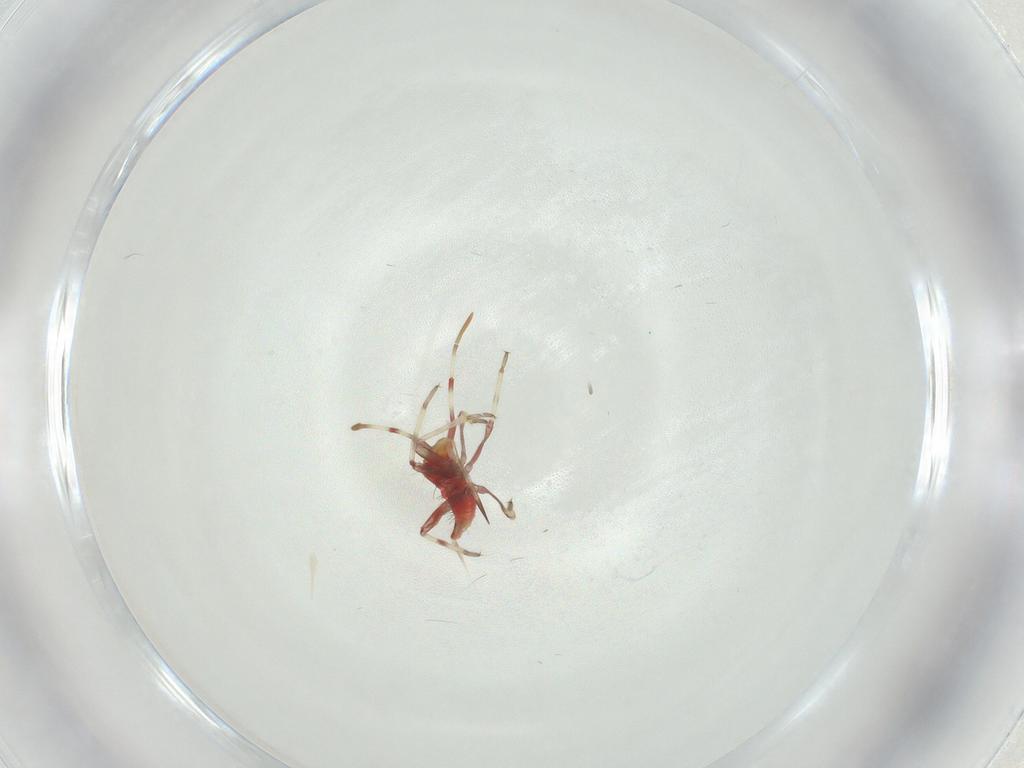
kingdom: Animalia
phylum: Arthropoda
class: Insecta
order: Hemiptera
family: Miridae
